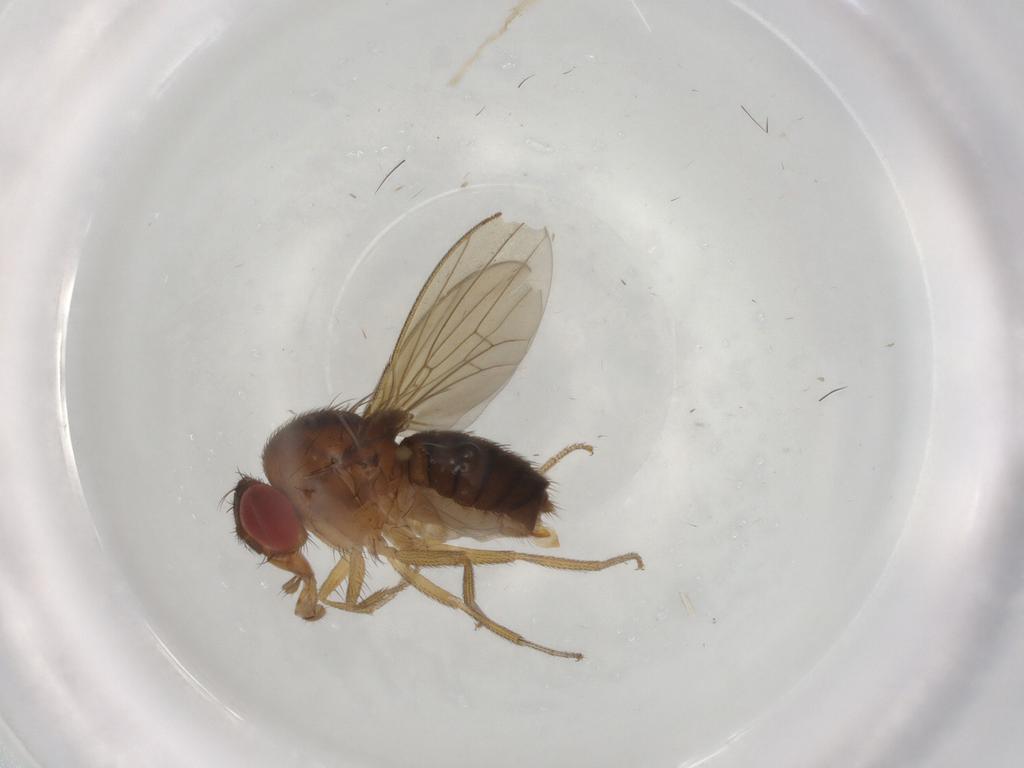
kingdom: Animalia
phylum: Arthropoda
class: Insecta
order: Diptera
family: Drosophilidae
